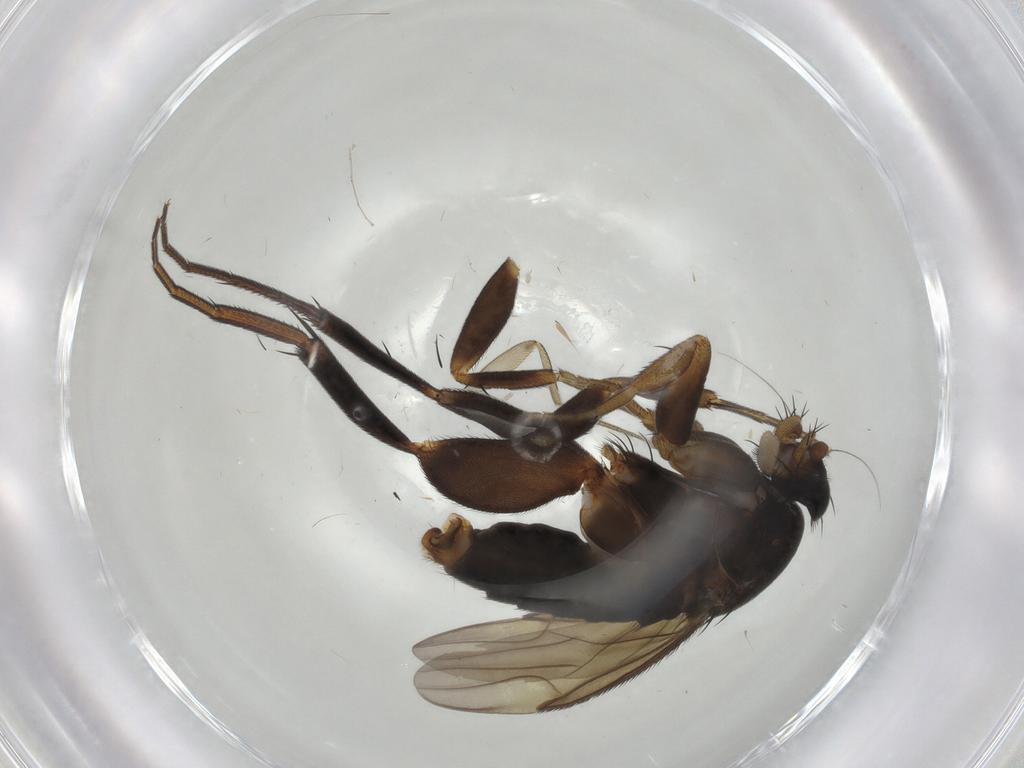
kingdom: Animalia
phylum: Arthropoda
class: Insecta
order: Diptera
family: Phoridae
